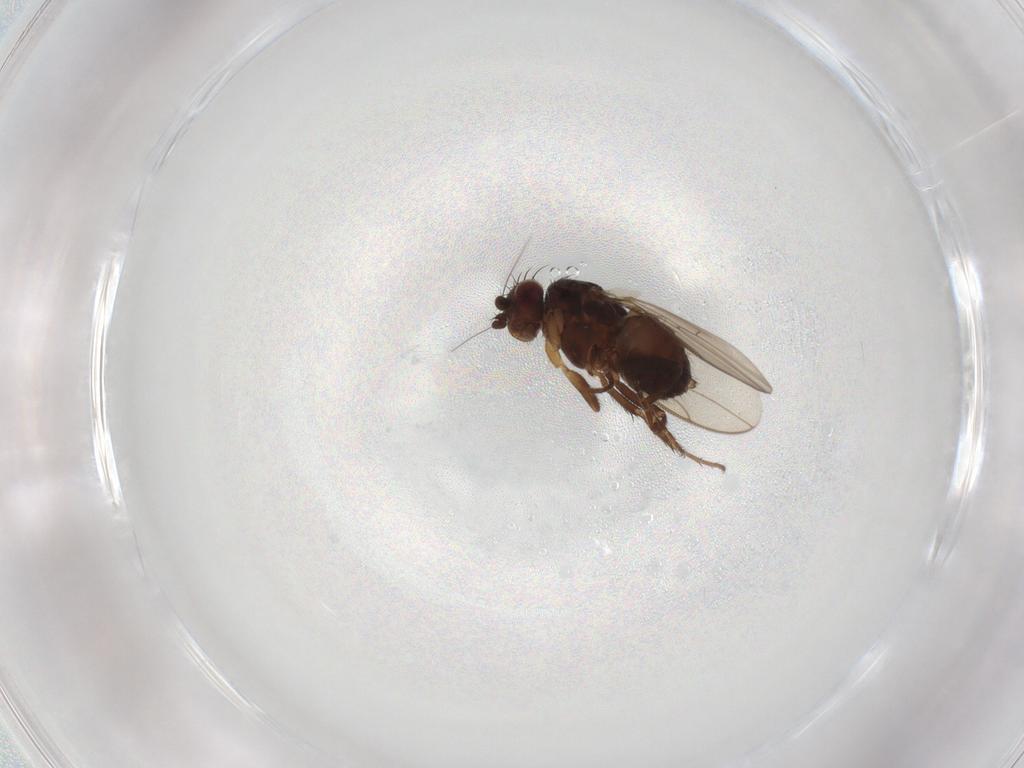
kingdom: Animalia
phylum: Arthropoda
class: Insecta
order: Diptera
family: Sphaeroceridae
